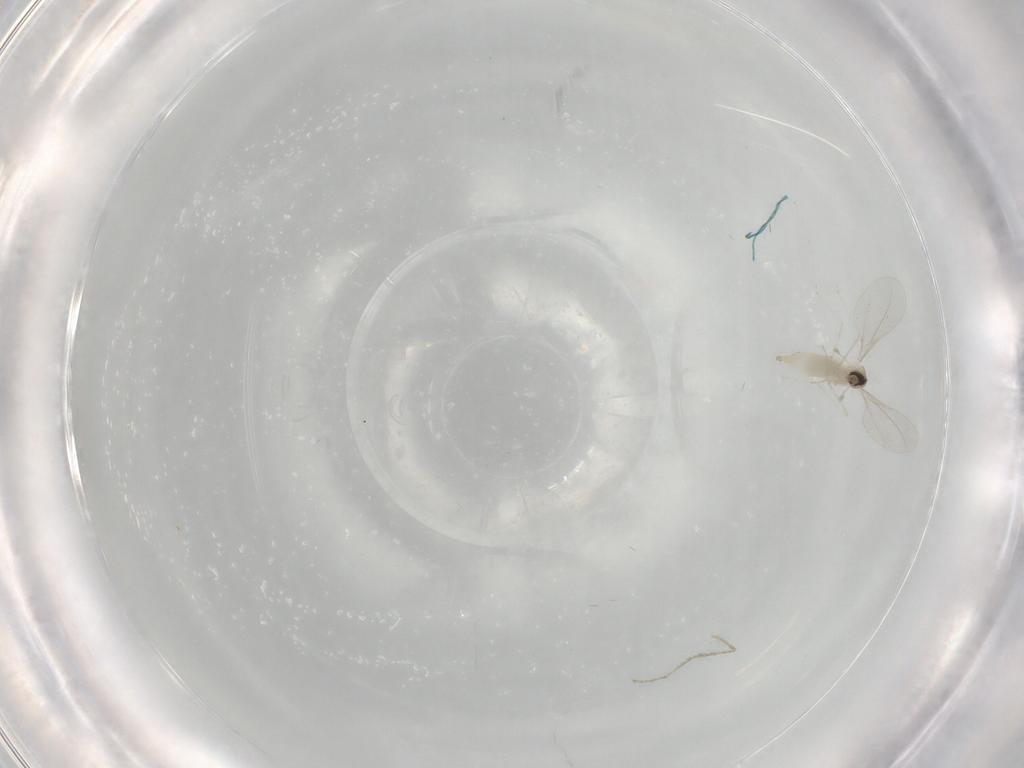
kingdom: Animalia
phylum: Arthropoda
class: Insecta
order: Diptera
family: Cecidomyiidae
